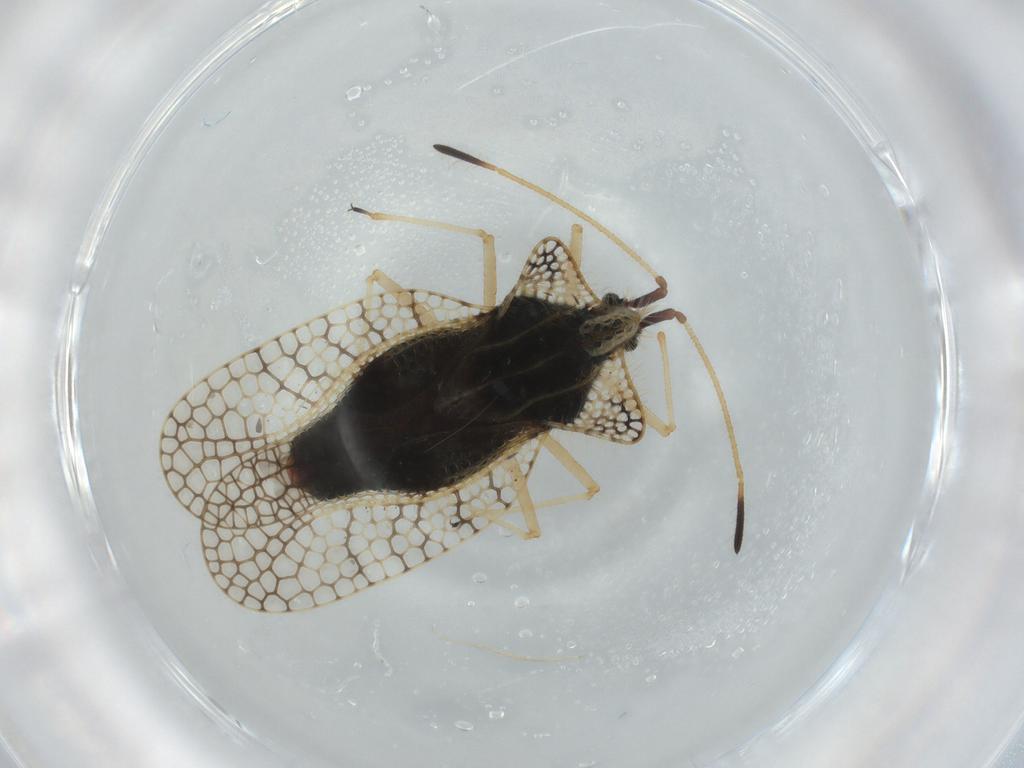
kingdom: Animalia
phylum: Arthropoda
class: Insecta
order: Hemiptera
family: Tingidae
